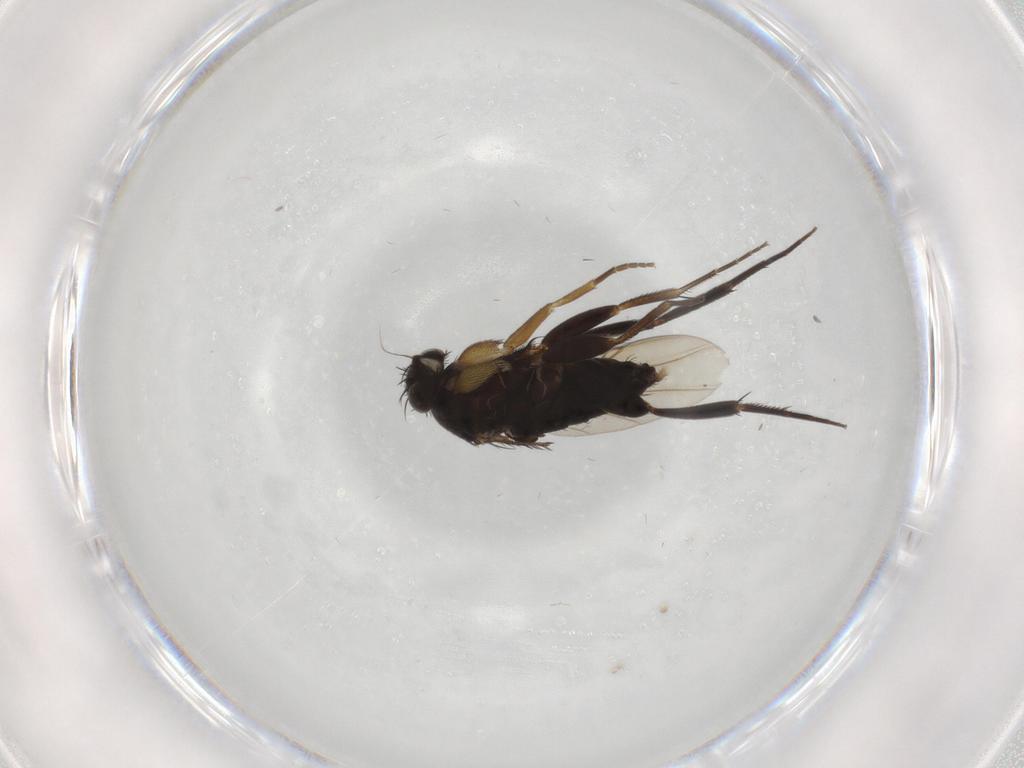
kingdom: Animalia
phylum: Arthropoda
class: Insecta
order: Diptera
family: Phoridae
